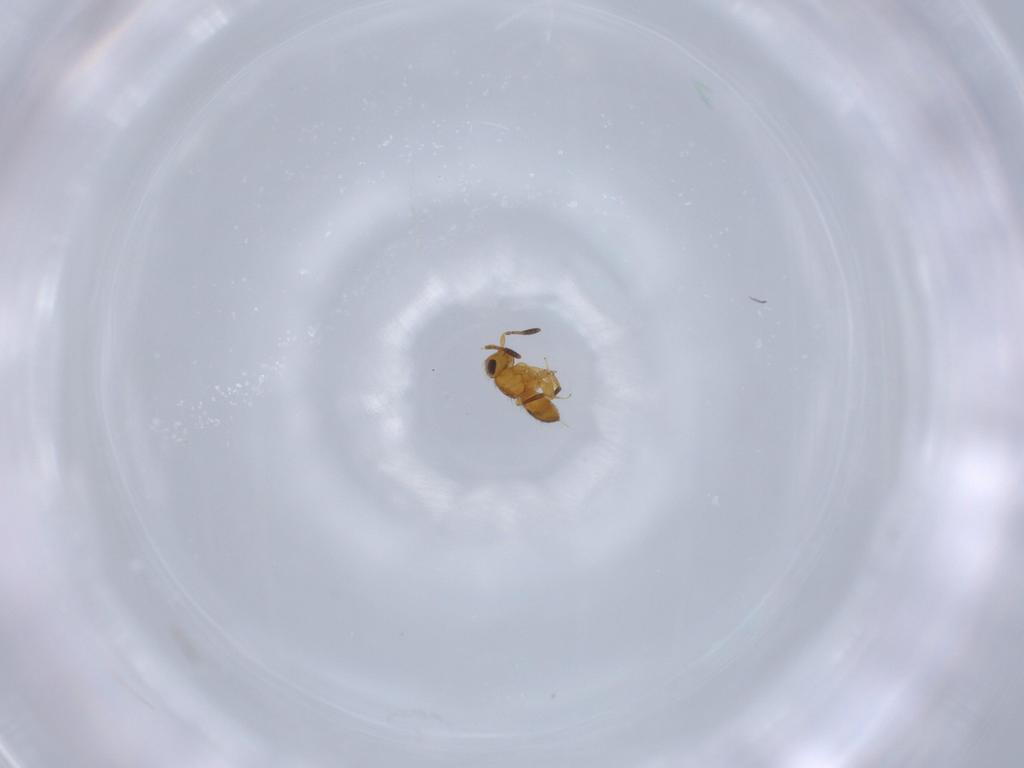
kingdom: Animalia
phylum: Arthropoda
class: Insecta
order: Hymenoptera
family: Scelionidae
